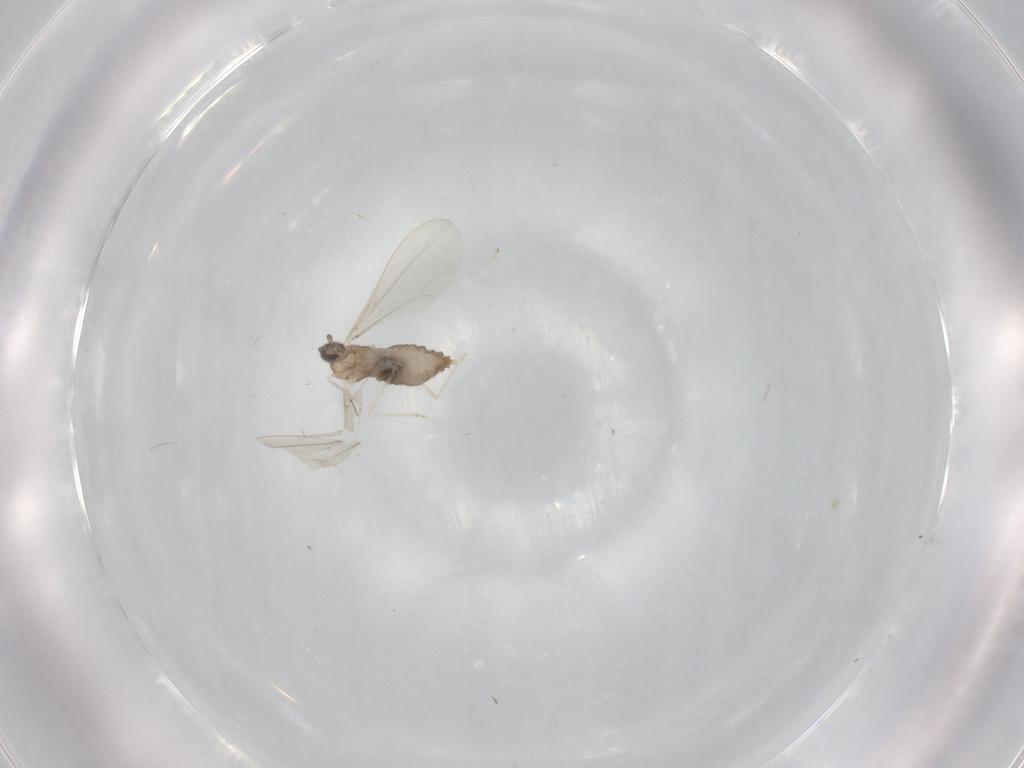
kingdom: Animalia
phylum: Arthropoda
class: Insecta
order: Diptera
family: Cecidomyiidae
